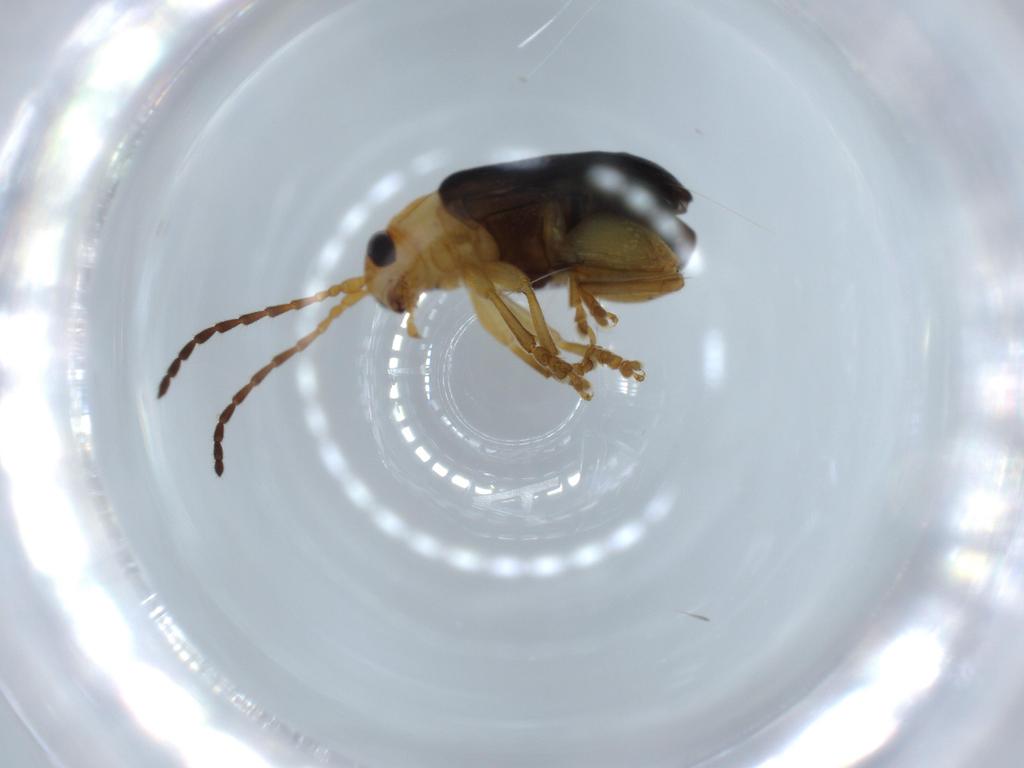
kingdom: Animalia
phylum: Arthropoda
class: Insecta
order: Coleoptera
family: Chrysomelidae
